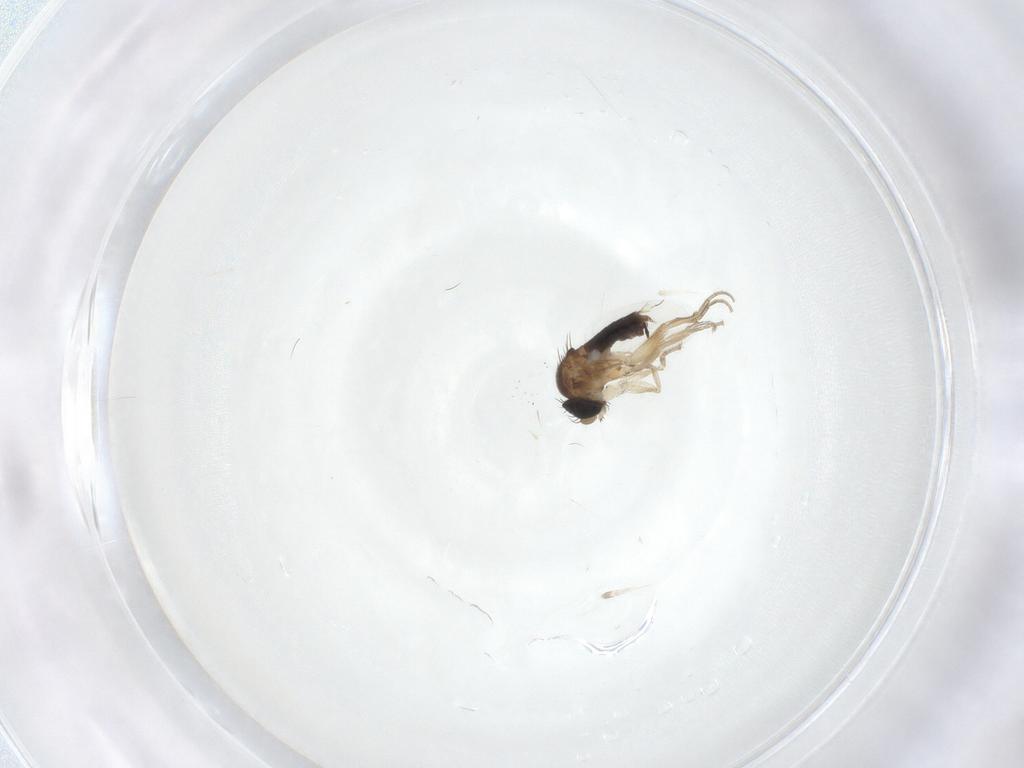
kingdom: Animalia
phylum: Arthropoda
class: Insecta
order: Diptera
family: Phoridae
